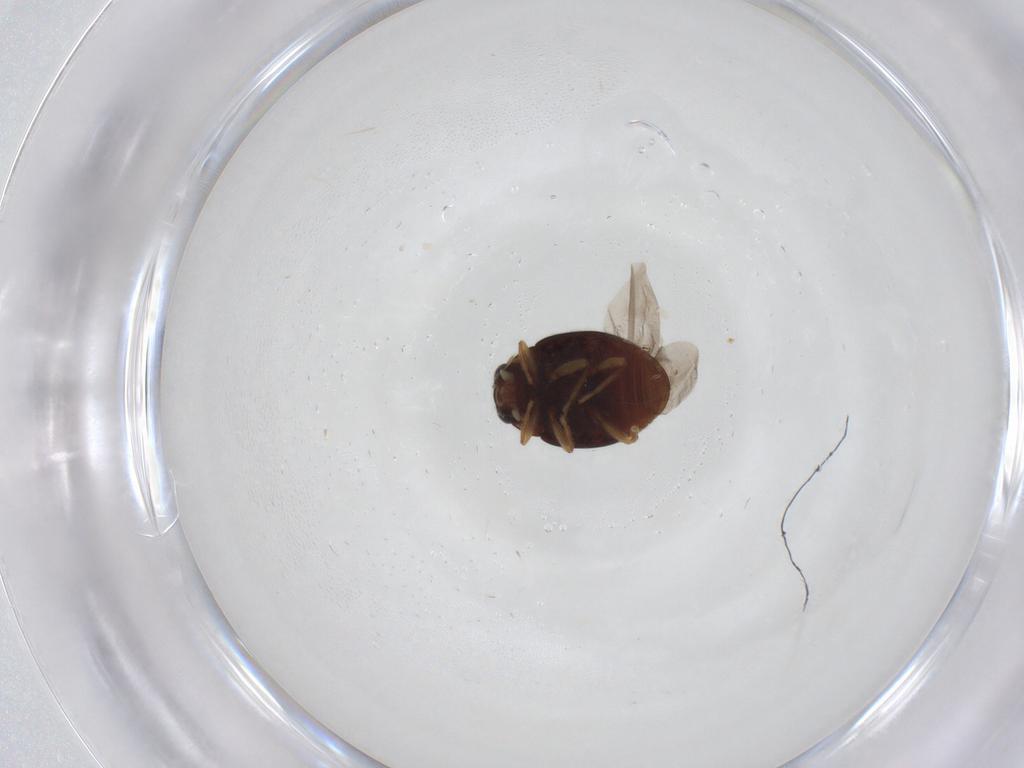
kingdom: Animalia
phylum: Arthropoda
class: Insecta
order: Coleoptera
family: Coccinellidae
